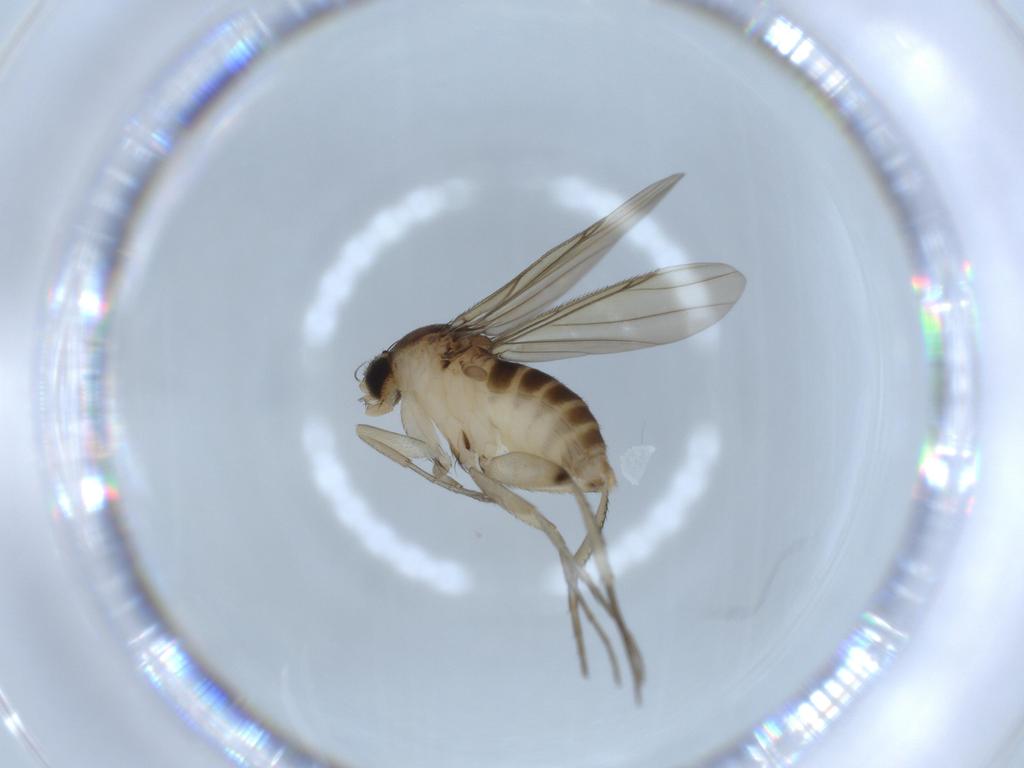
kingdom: Animalia
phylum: Arthropoda
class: Insecta
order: Diptera
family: Phoridae
